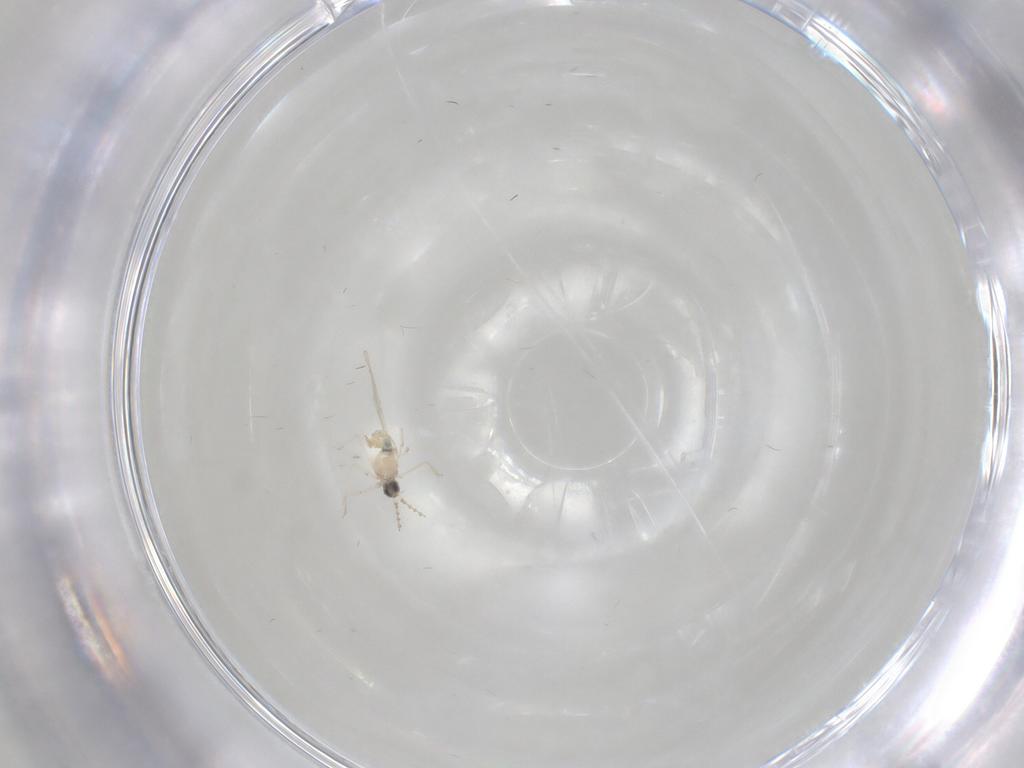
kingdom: Animalia
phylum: Arthropoda
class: Insecta
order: Diptera
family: Cecidomyiidae
